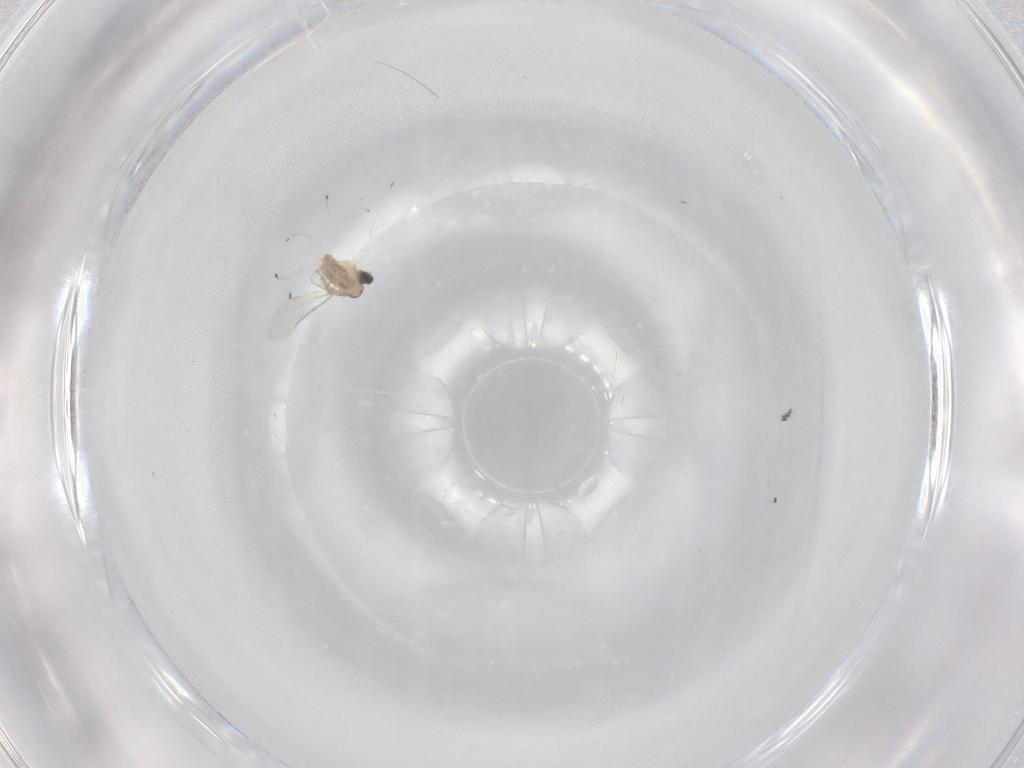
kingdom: Animalia
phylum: Arthropoda
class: Insecta
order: Diptera
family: Cecidomyiidae
